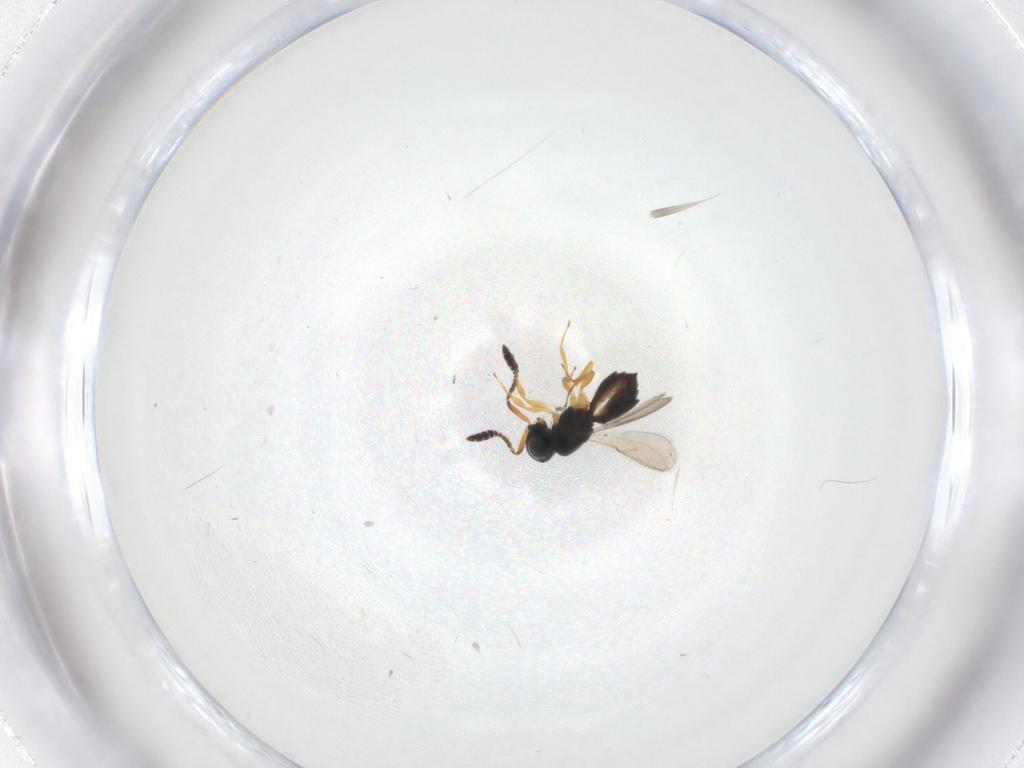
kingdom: Animalia
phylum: Arthropoda
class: Insecta
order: Hymenoptera
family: Scelionidae
